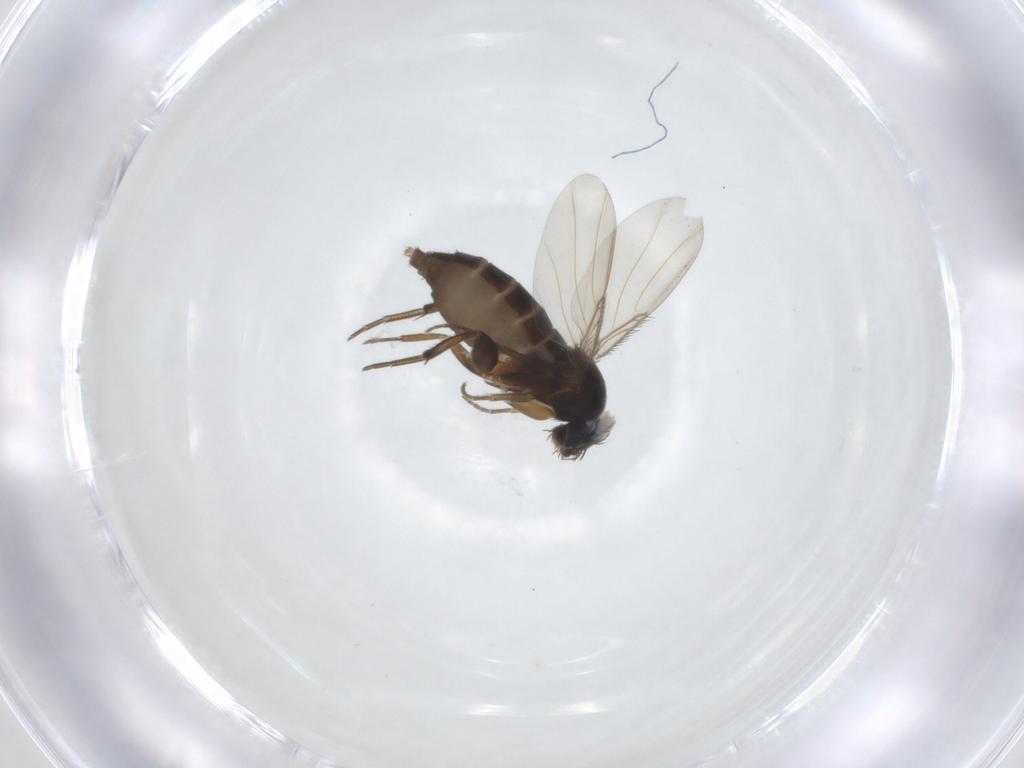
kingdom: Animalia
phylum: Arthropoda
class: Insecta
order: Diptera
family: Phoridae
